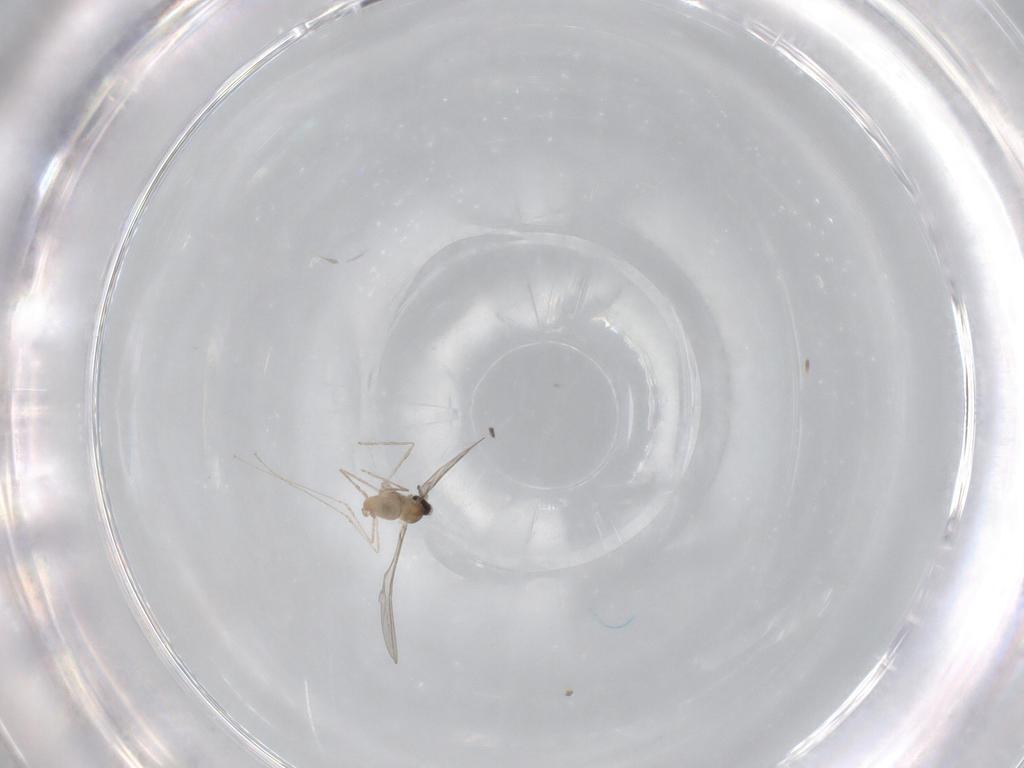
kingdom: Animalia
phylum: Arthropoda
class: Insecta
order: Diptera
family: Cecidomyiidae
